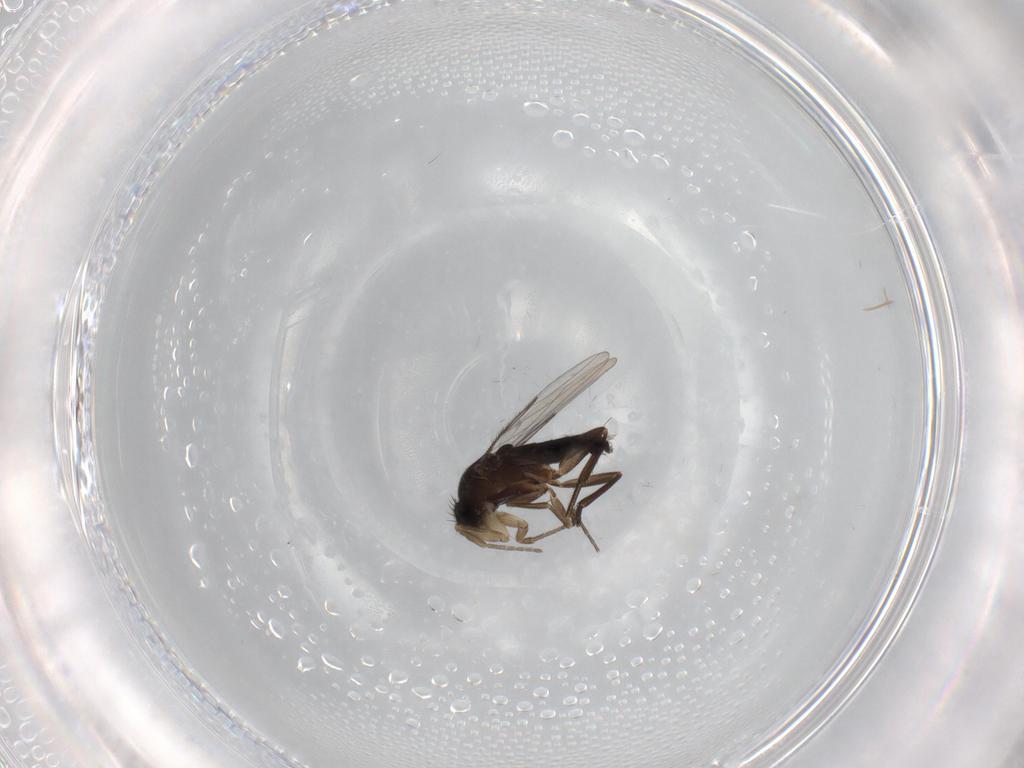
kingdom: Animalia
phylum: Arthropoda
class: Insecta
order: Diptera
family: Phoridae
